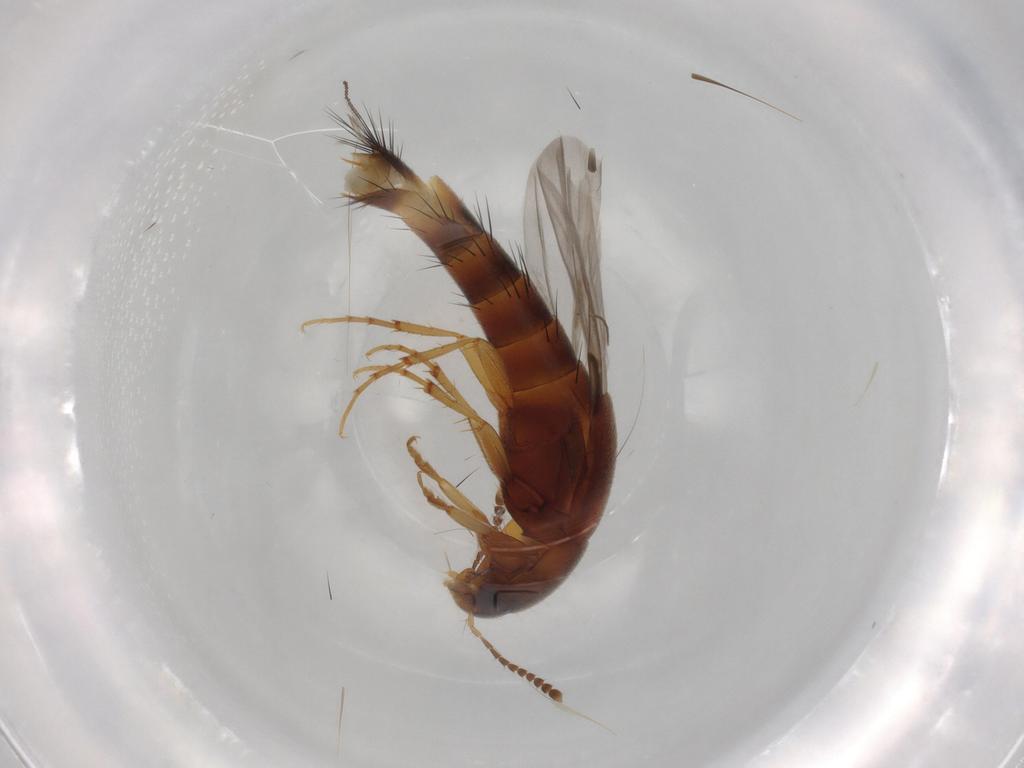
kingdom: Animalia
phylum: Arthropoda
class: Insecta
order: Coleoptera
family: Staphylinidae
